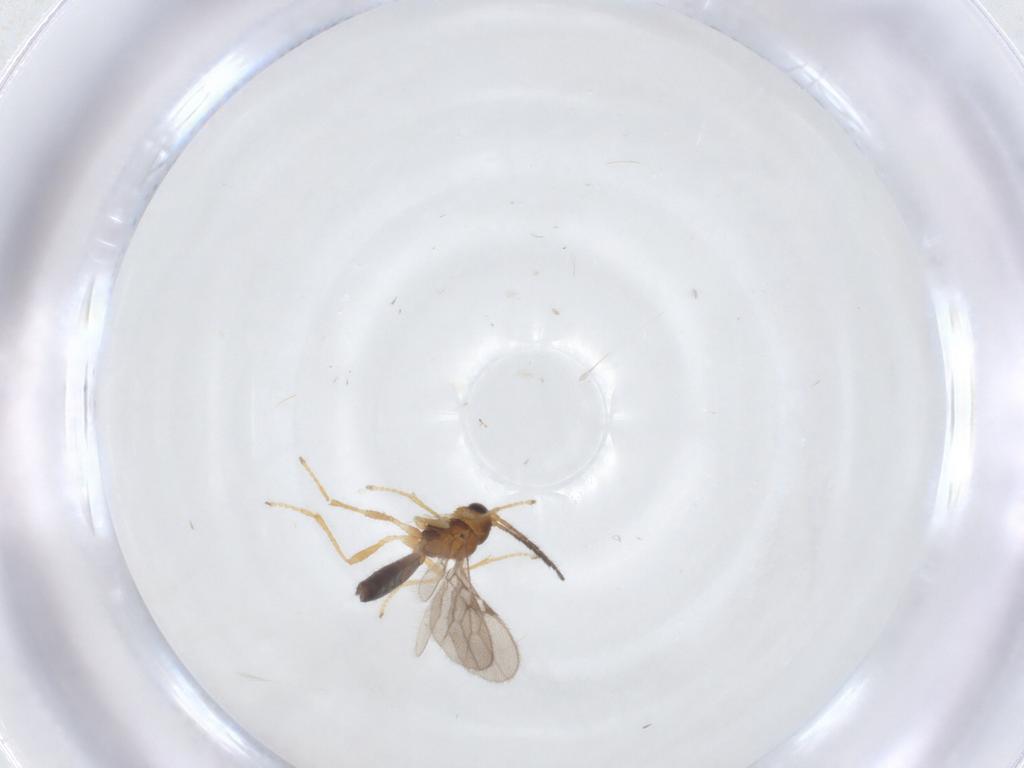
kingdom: Animalia
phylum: Arthropoda
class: Insecta
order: Hymenoptera
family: Braconidae
